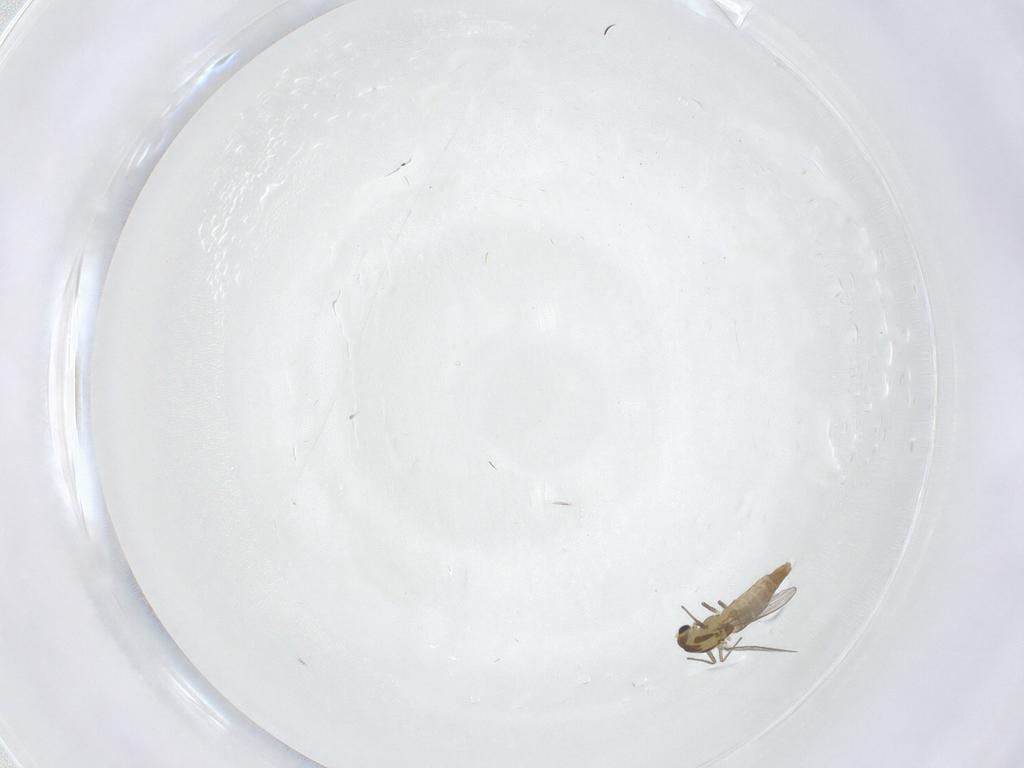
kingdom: Animalia
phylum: Arthropoda
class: Insecta
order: Diptera
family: Chironomidae
